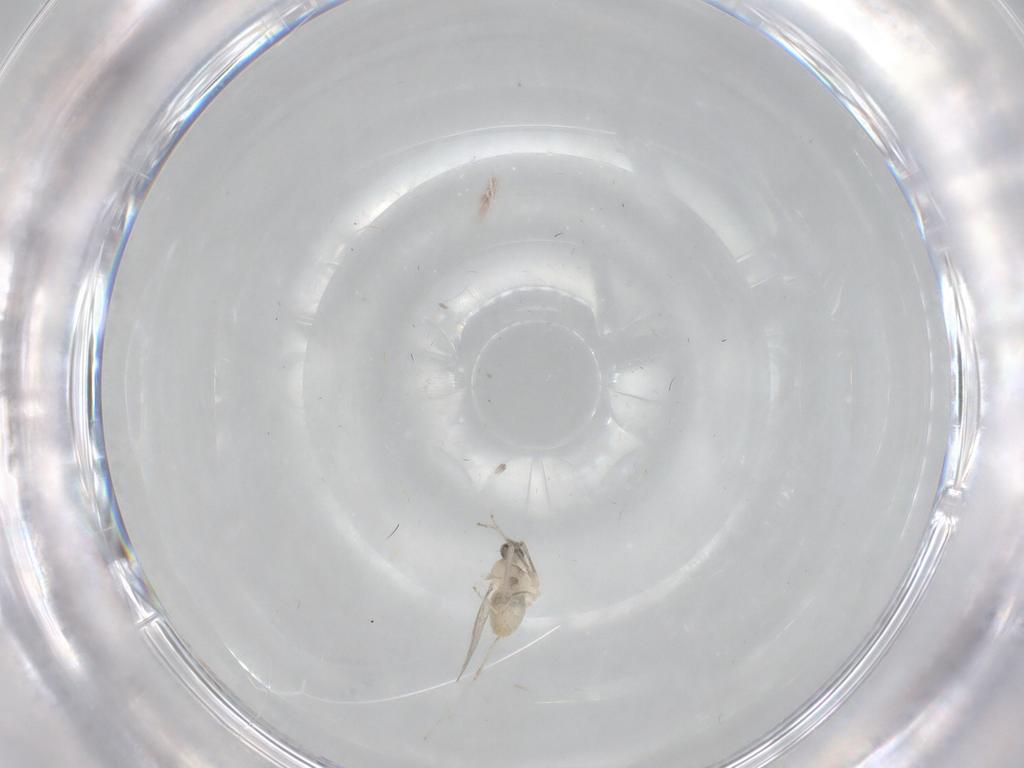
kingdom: Animalia
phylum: Arthropoda
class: Insecta
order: Diptera
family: Cecidomyiidae
